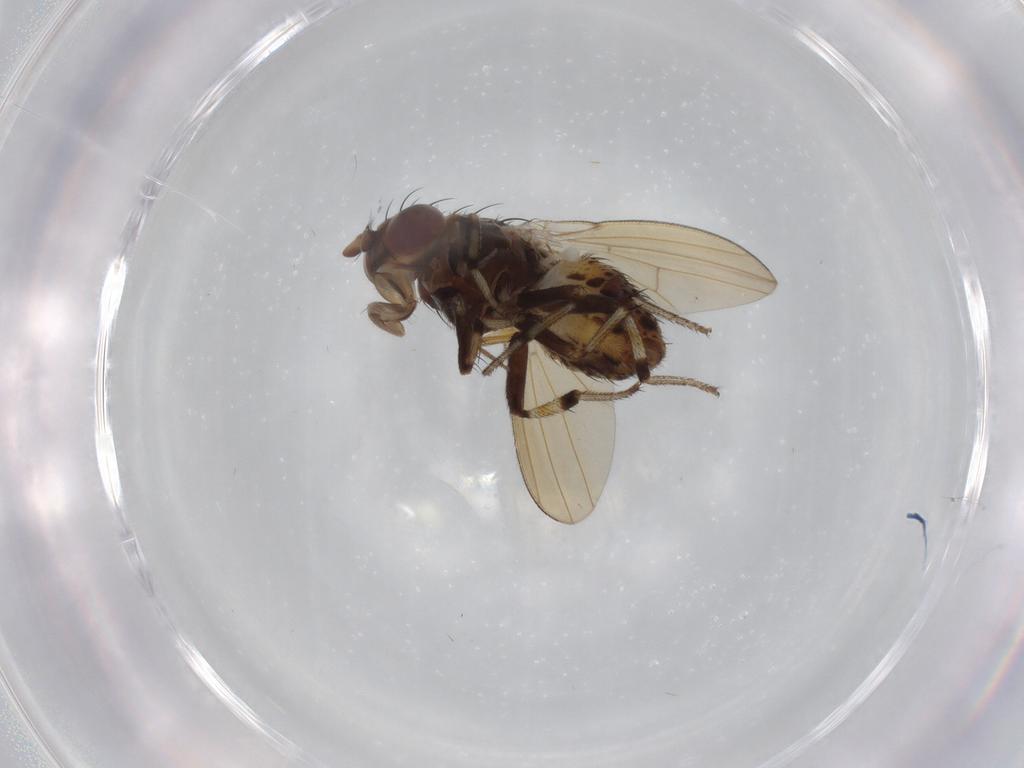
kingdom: Animalia
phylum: Arthropoda
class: Insecta
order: Diptera
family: Dolichopodidae
